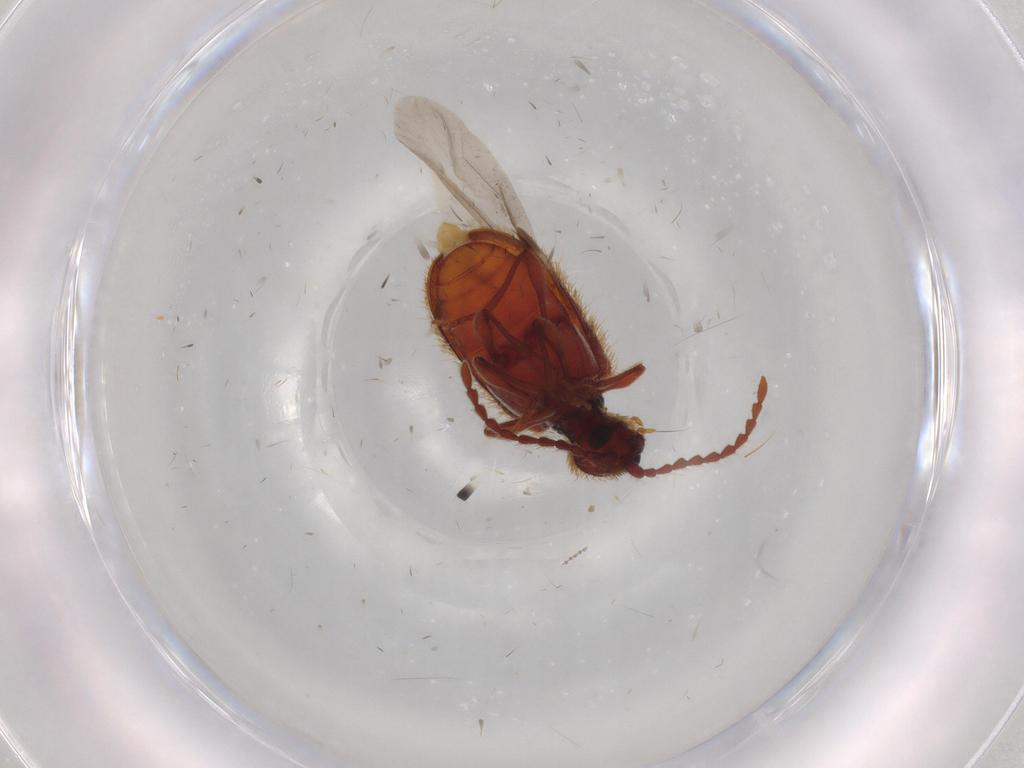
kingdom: Animalia
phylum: Arthropoda
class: Insecta
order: Coleoptera
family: Ptinidae
